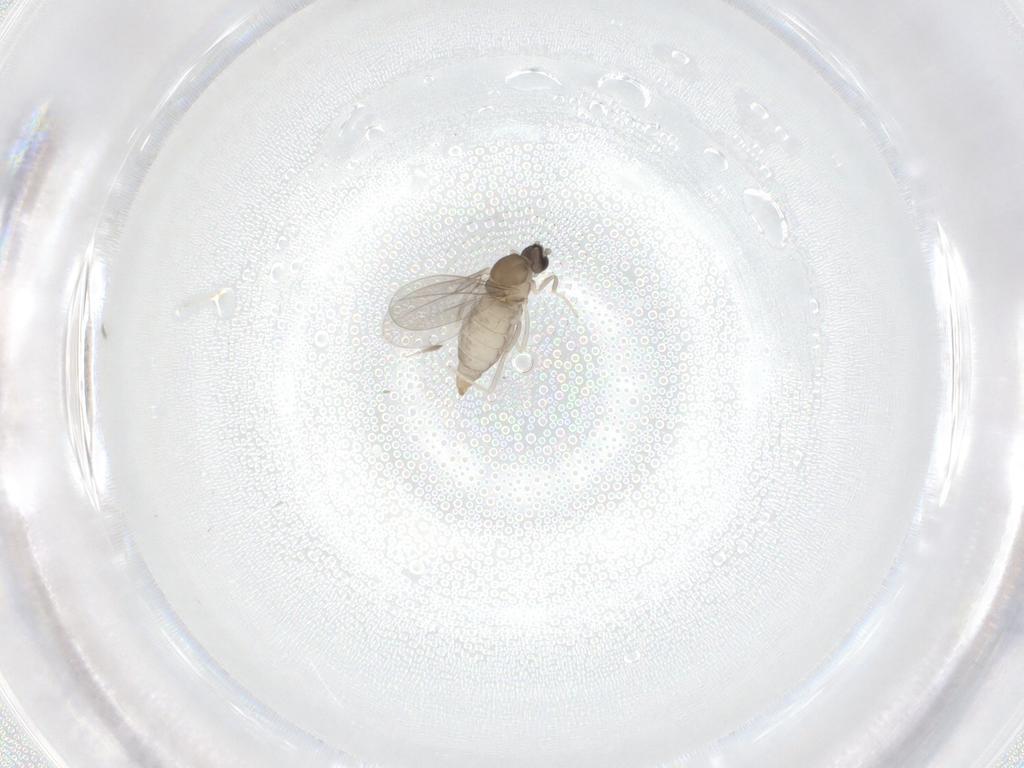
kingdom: Animalia
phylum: Arthropoda
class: Insecta
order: Diptera
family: Cecidomyiidae
